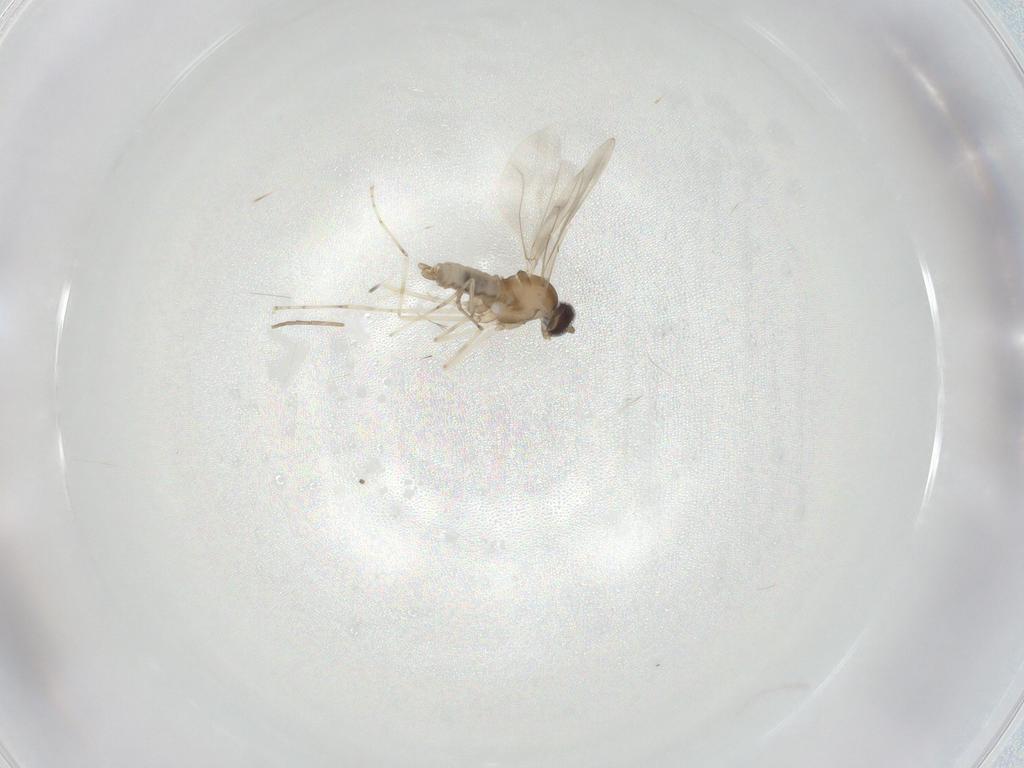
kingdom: Animalia
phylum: Arthropoda
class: Insecta
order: Diptera
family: Cecidomyiidae
